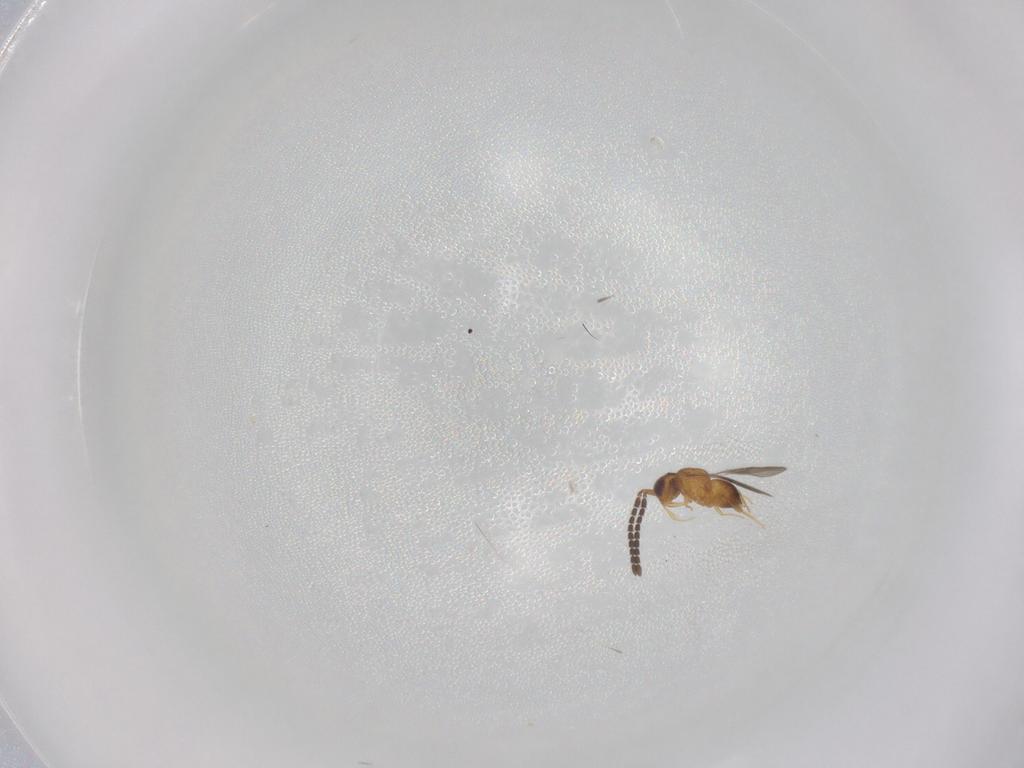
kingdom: Animalia
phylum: Arthropoda
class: Insecta
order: Hymenoptera
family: Ceraphronidae
